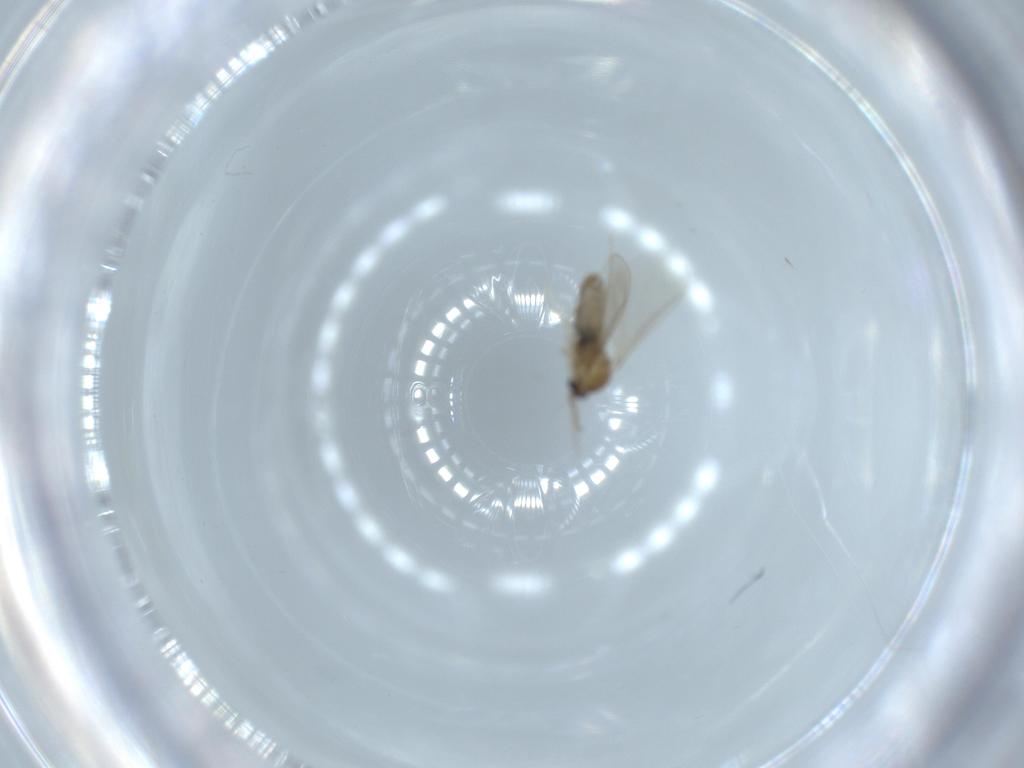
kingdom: Animalia
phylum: Arthropoda
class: Insecta
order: Diptera
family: Cecidomyiidae
